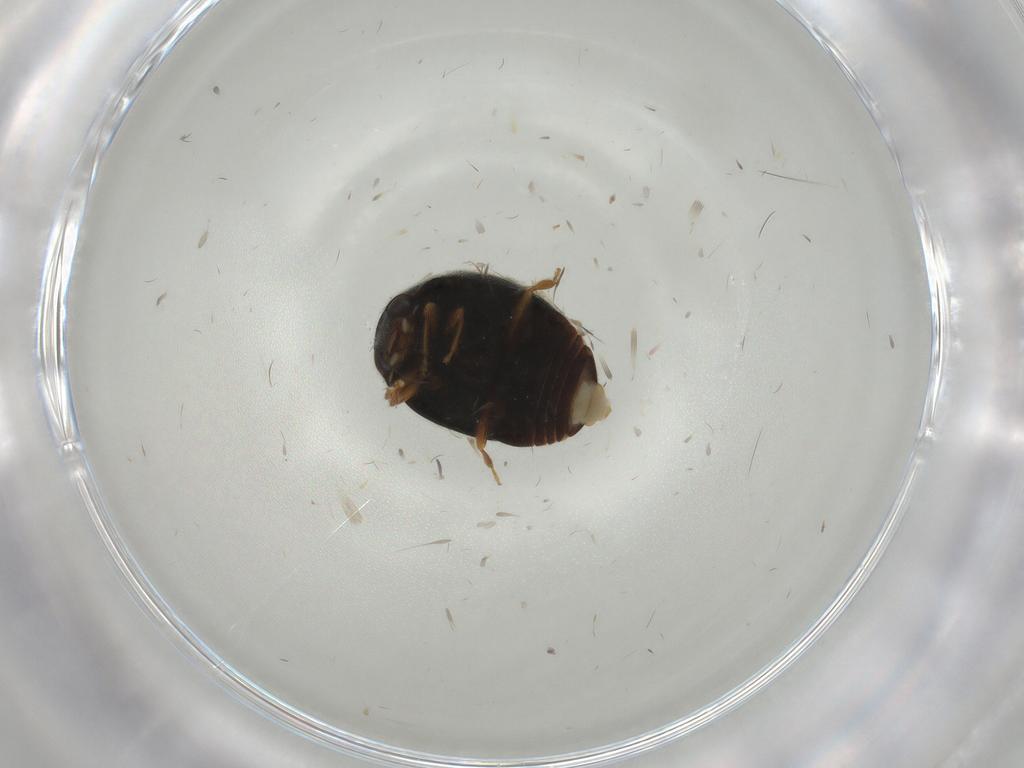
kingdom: Animalia
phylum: Arthropoda
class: Insecta
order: Coleoptera
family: Coccinellidae
